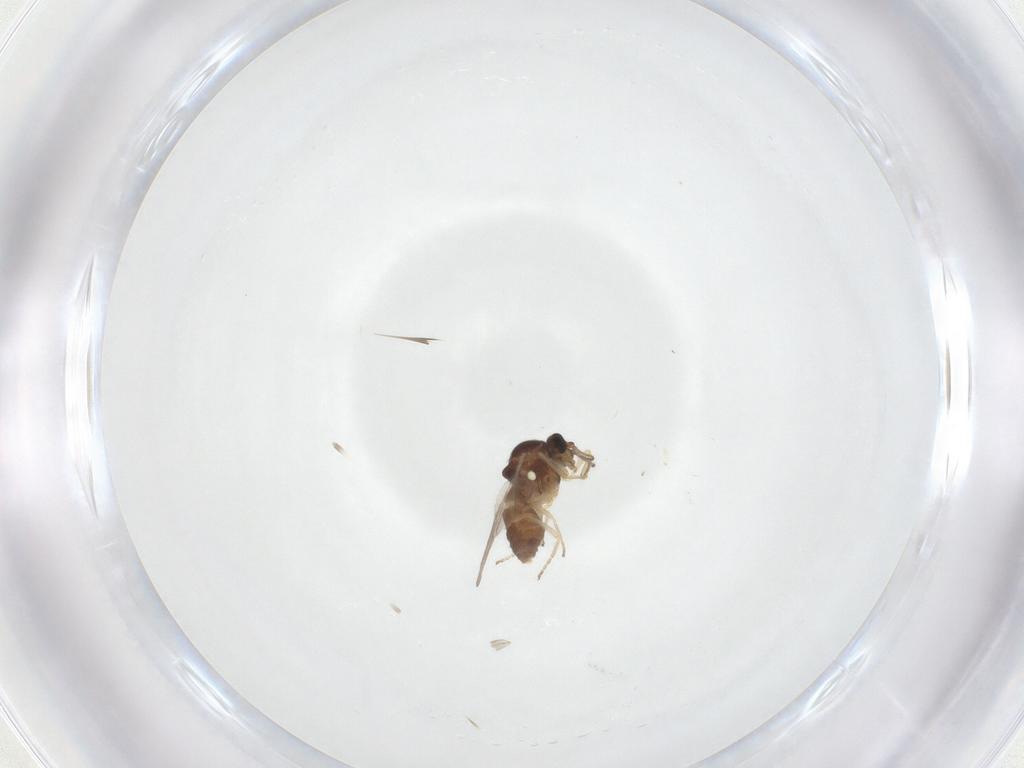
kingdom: Animalia
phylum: Arthropoda
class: Insecta
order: Diptera
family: Ceratopogonidae
